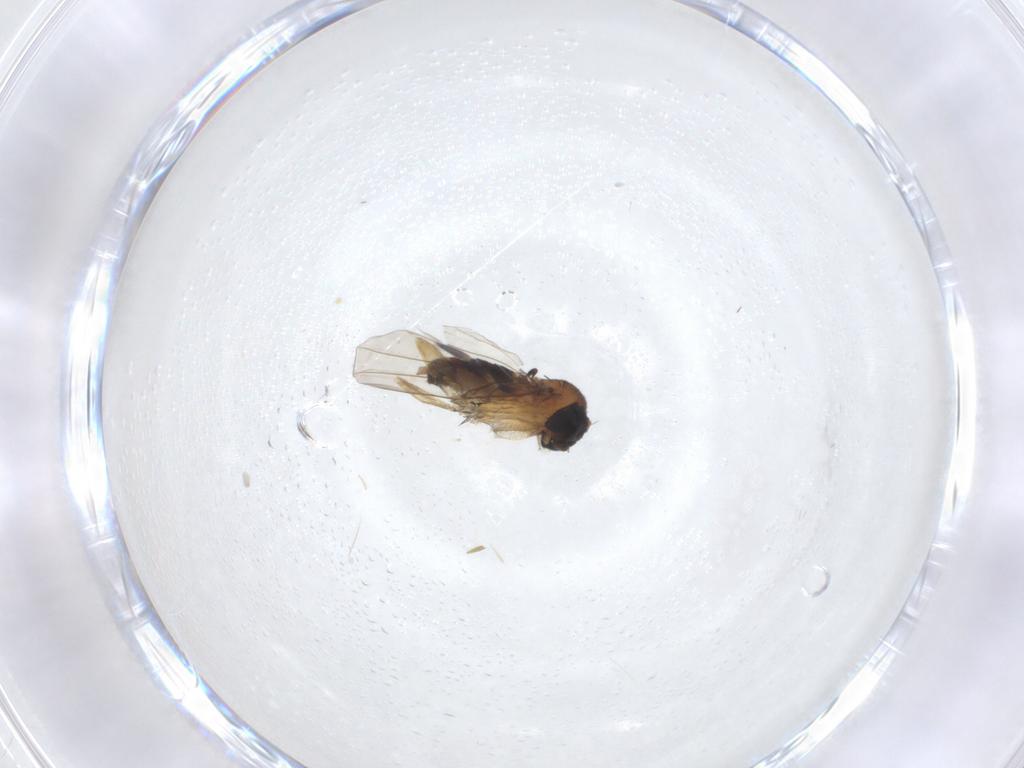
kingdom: Animalia
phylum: Arthropoda
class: Insecta
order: Diptera
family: Phoridae
